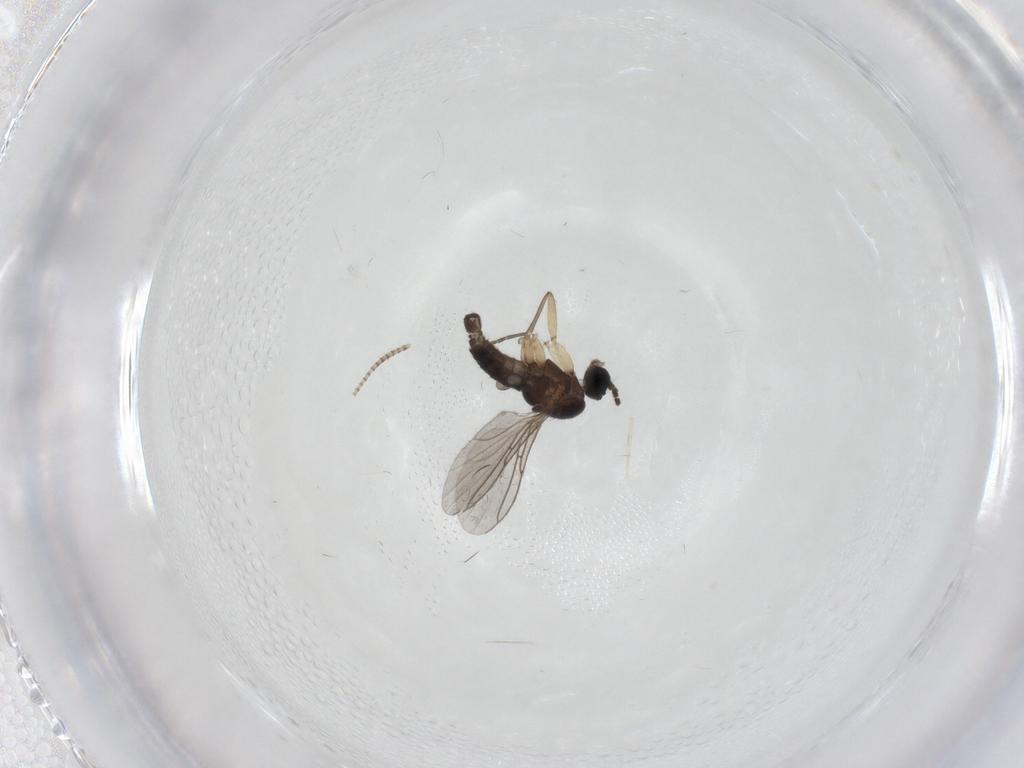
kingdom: Animalia
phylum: Arthropoda
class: Insecta
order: Diptera
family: Sciaridae
